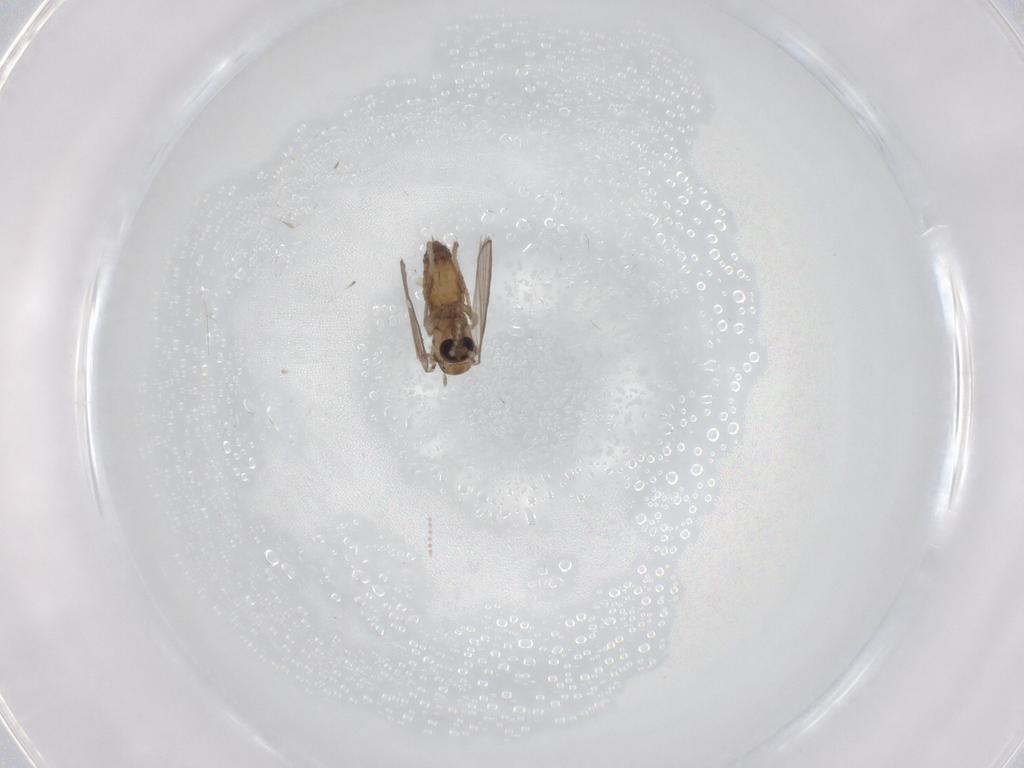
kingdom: Animalia
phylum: Arthropoda
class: Insecta
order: Diptera
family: Psychodidae
